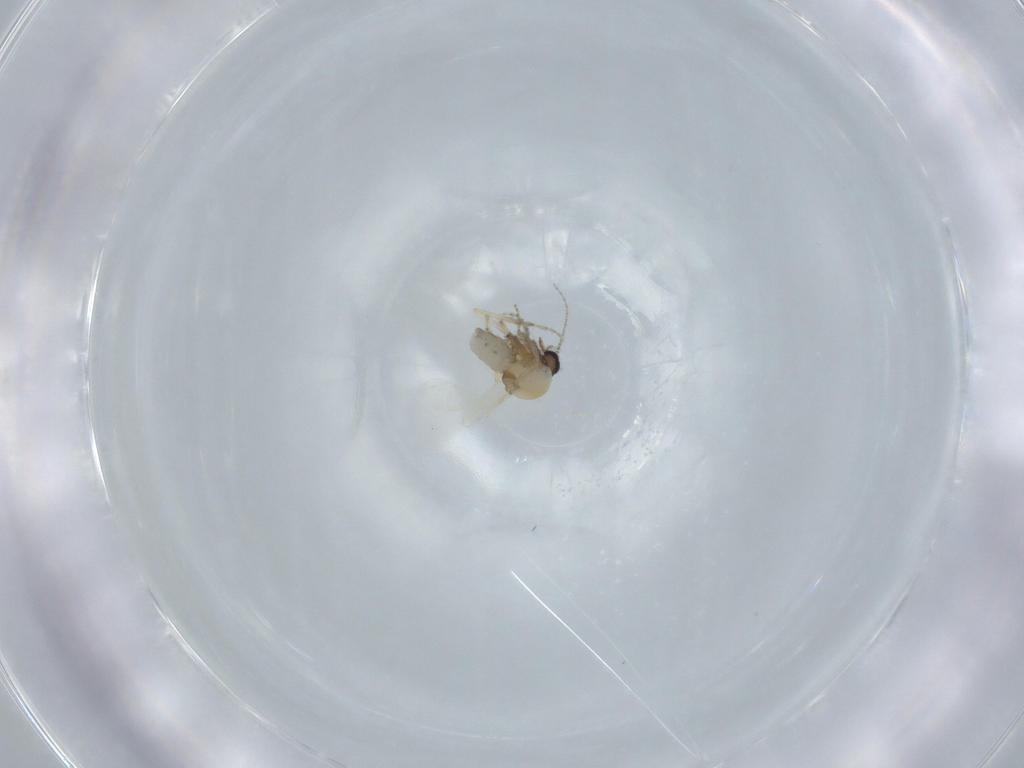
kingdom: Animalia
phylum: Arthropoda
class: Insecta
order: Diptera
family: Ceratopogonidae
